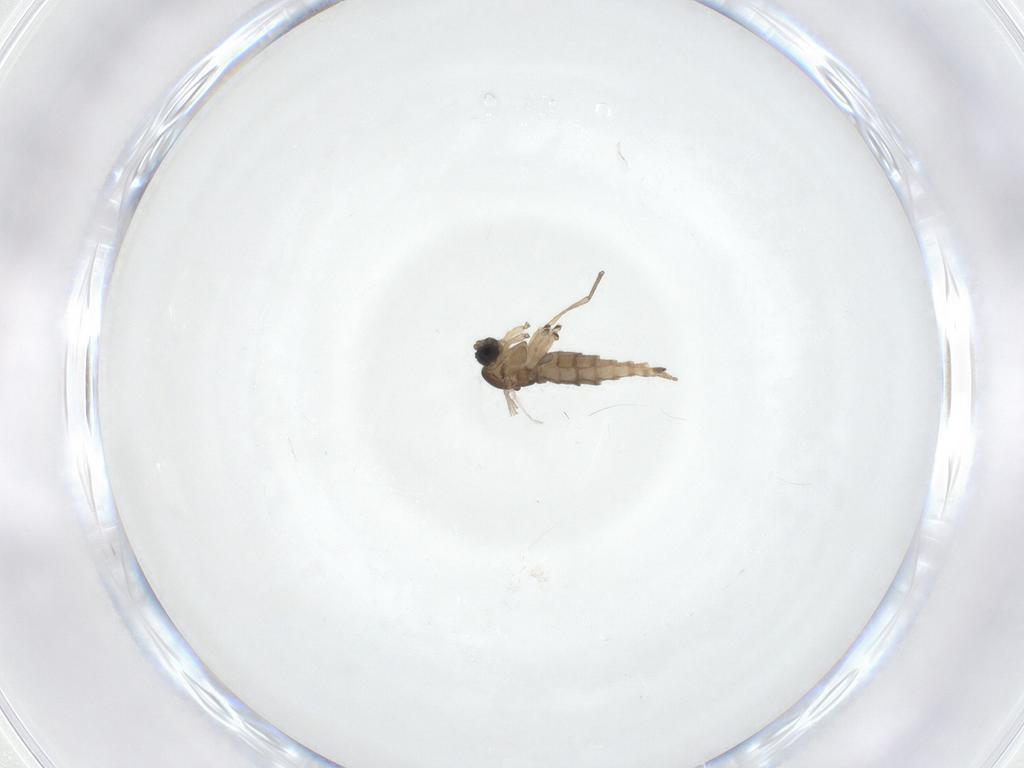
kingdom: Animalia
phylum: Arthropoda
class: Insecta
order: Diptera
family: Sciaridae
